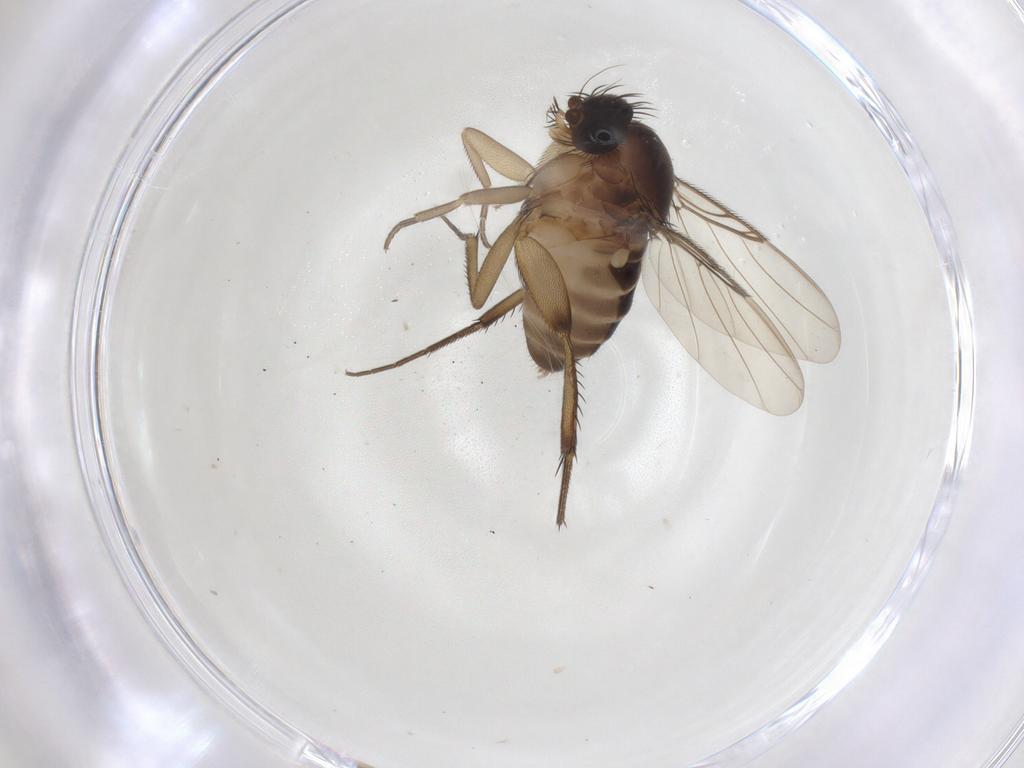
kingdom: Animalia
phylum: Arthropoda
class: Insecta
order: Diptera
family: Phoridae
